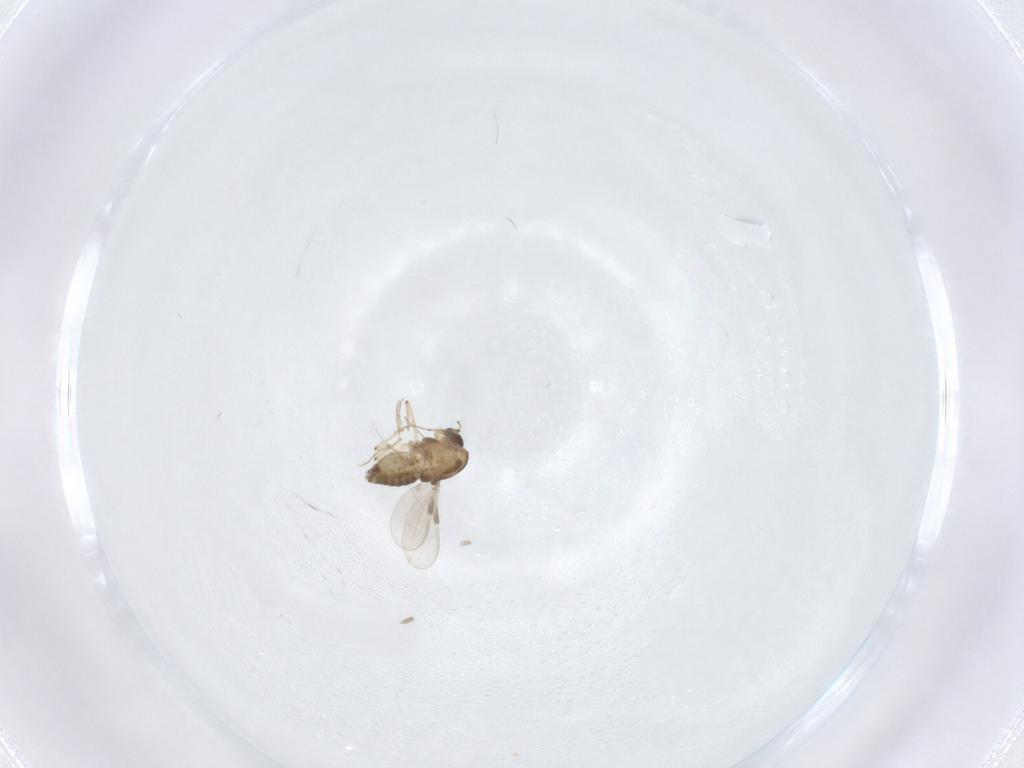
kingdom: Animalia
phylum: Arthropoda
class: Insecta
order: Diptera
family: Chironomidae
